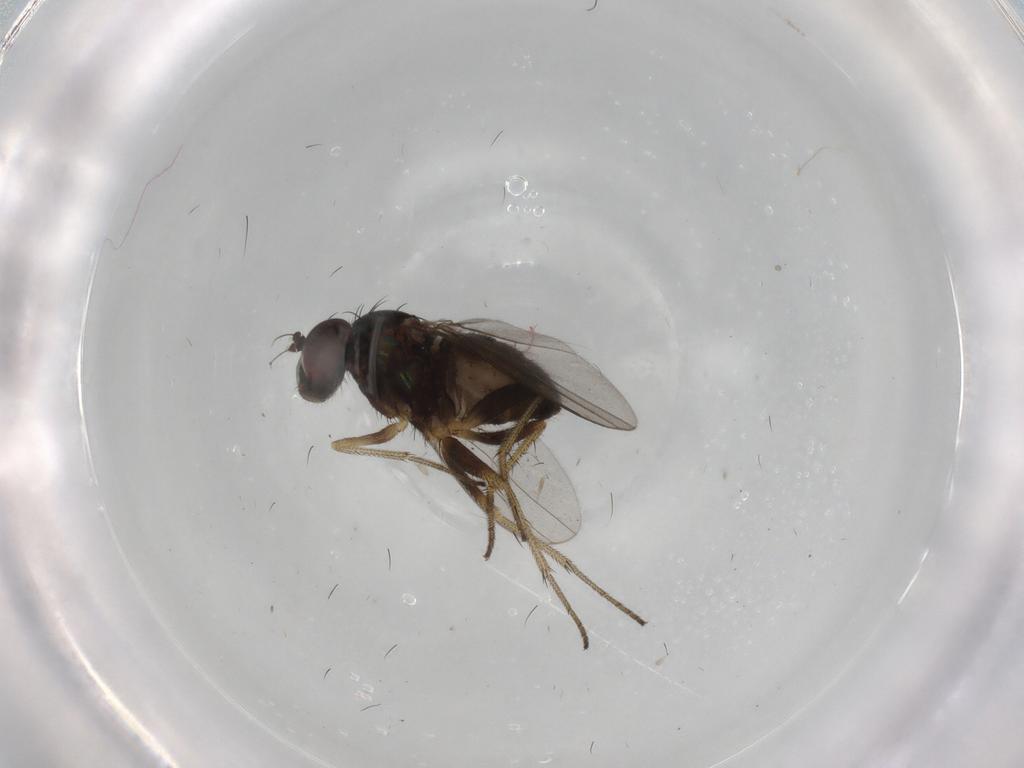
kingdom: Animalia
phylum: Arthropoda
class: Insecta
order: Diptera
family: Dolichopodidae
